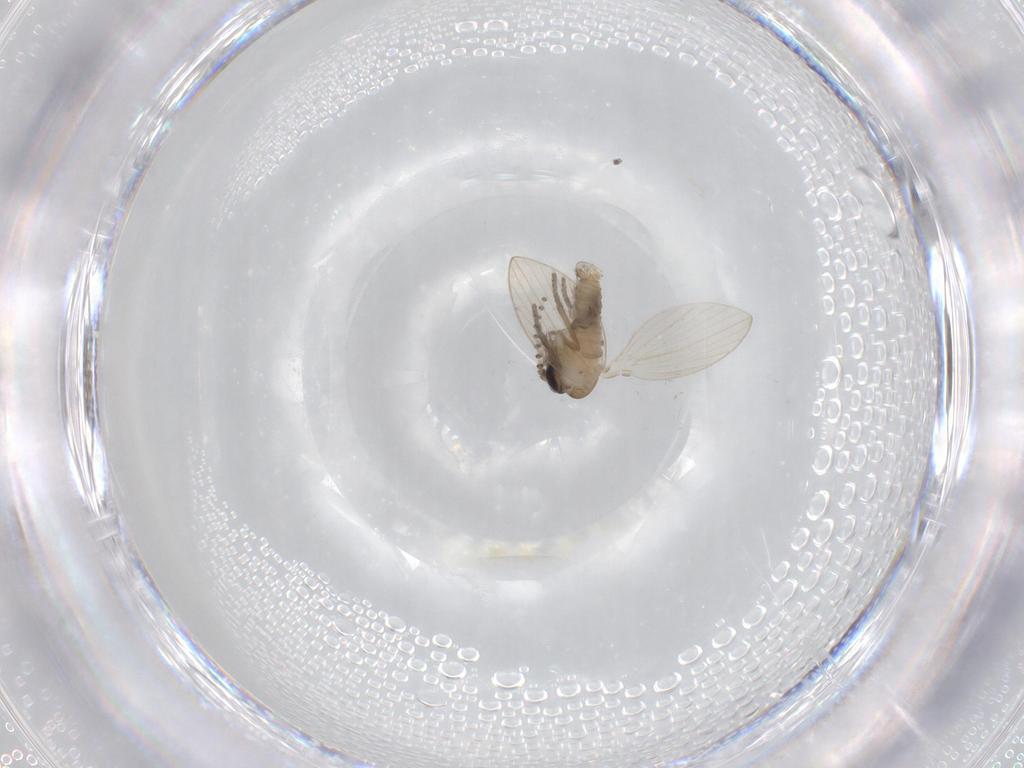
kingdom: Animalia
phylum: Arthropoda
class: Insecta
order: Diptera
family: Psychodidae
